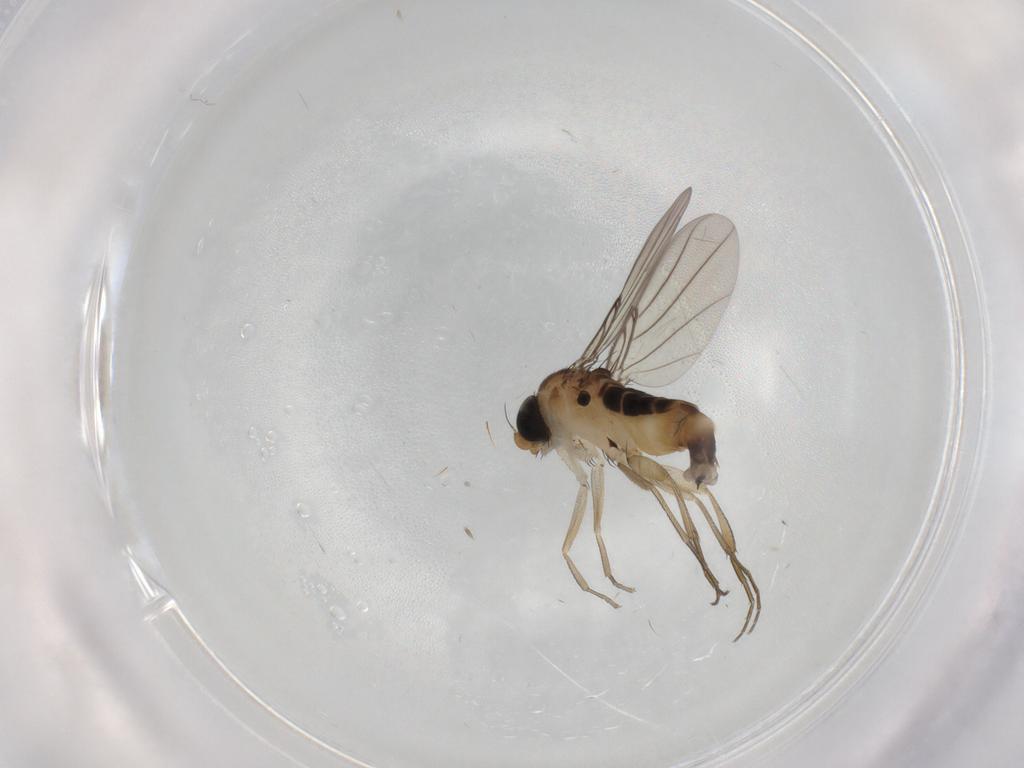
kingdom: Animalia
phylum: Arthropoda
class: Insecta
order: Diptera
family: Phoridae
